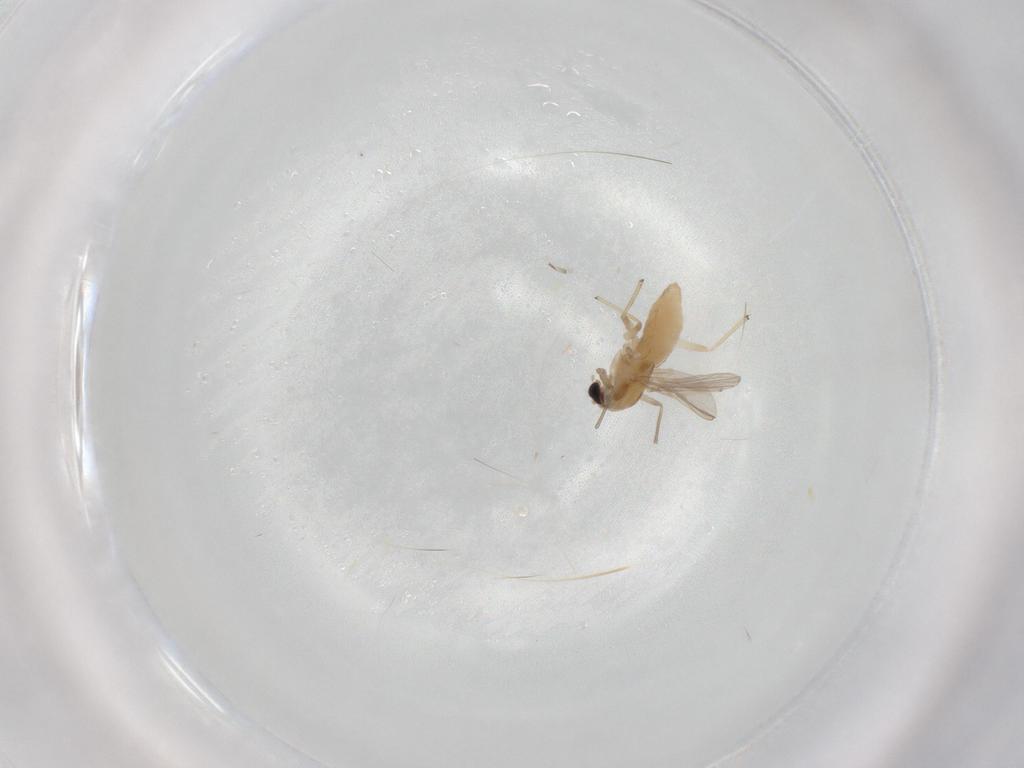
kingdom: Animalia
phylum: Arthropoda
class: Insecta
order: Diptera
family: Chironomidae
